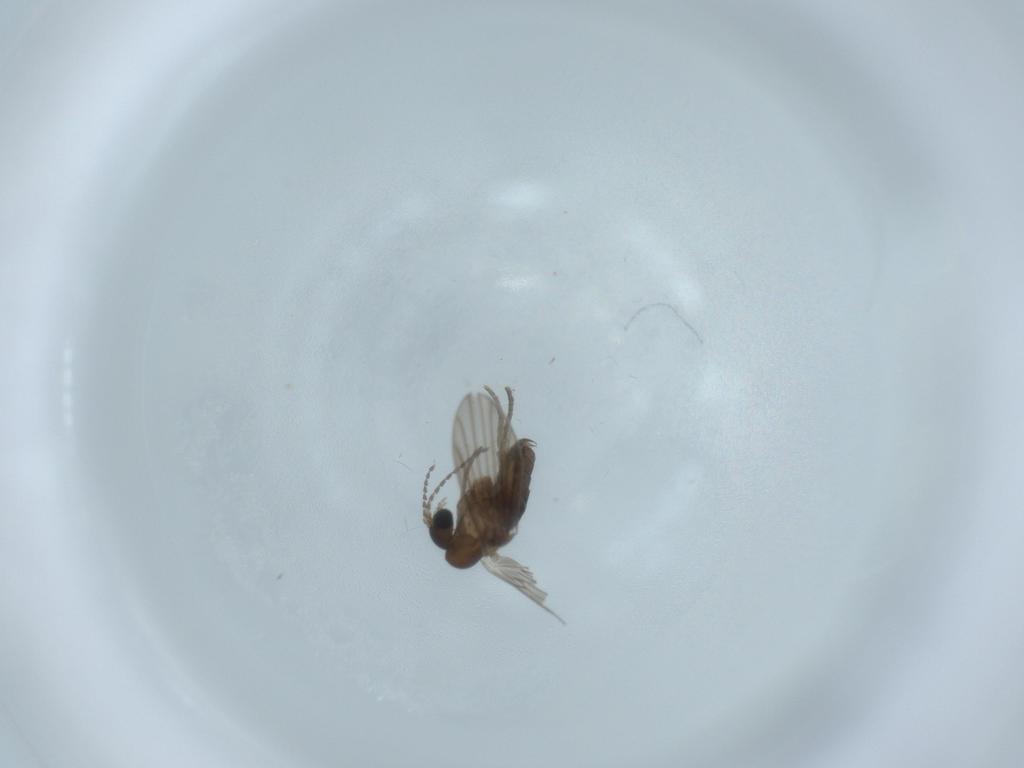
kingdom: Animalia
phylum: Arthropoda
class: Insecta
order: Diptera
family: Psychodidae
